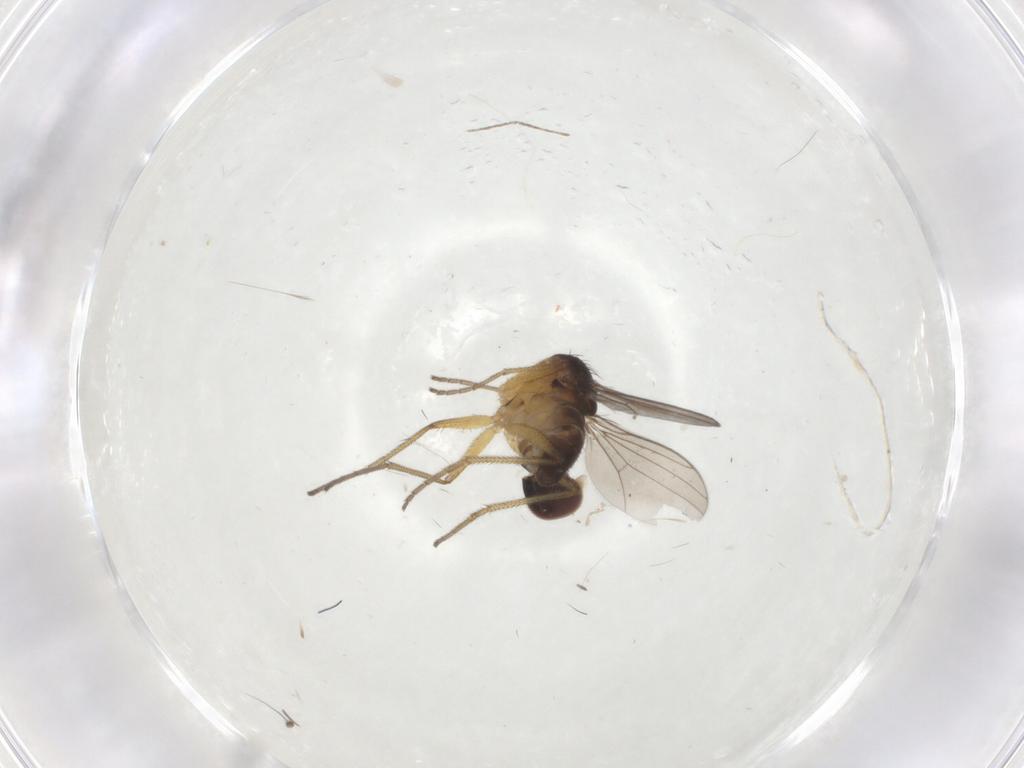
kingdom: Animalia
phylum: Arthropoda
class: Insecta
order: Diptera
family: Dolichopodidae
